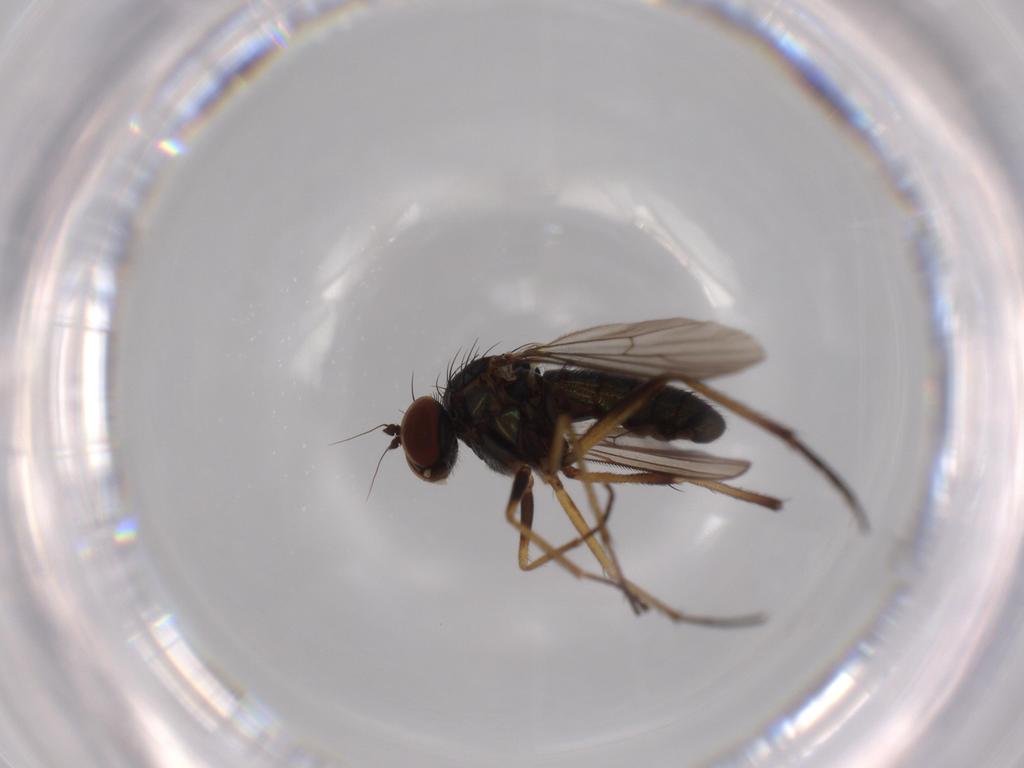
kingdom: Animalia
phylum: Arthropoda
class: Insecta
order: Diptera
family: Dolichopodidae
